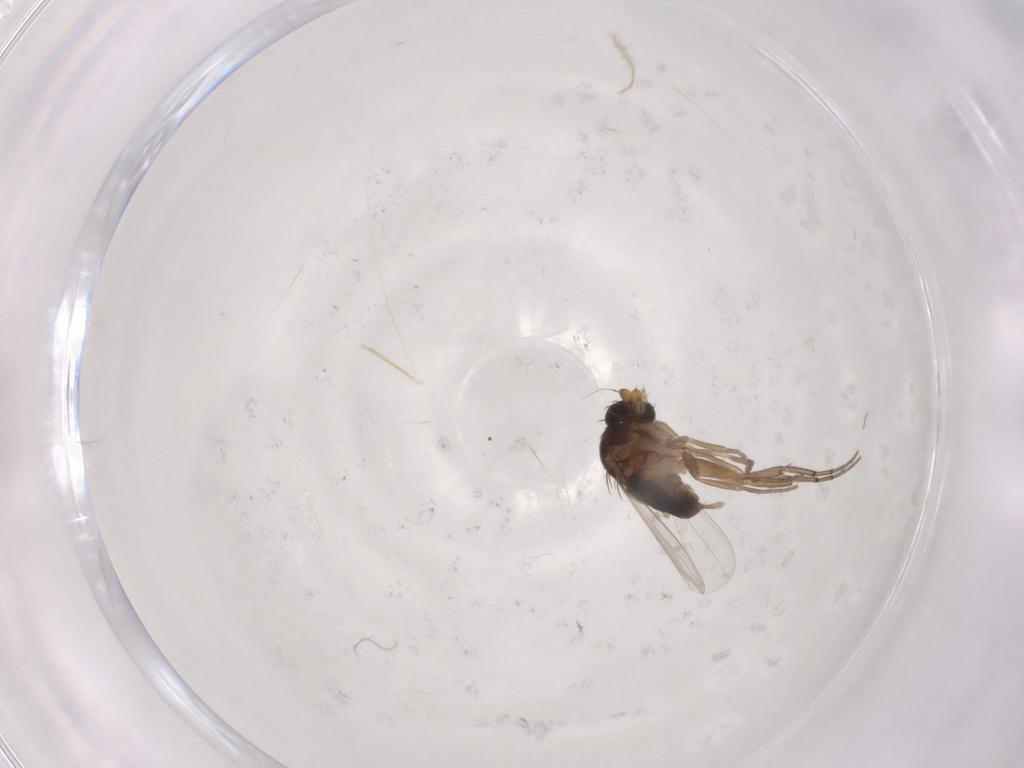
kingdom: Animalia
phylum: Arthropoda
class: Insecta
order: Diptera
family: Phoridae
